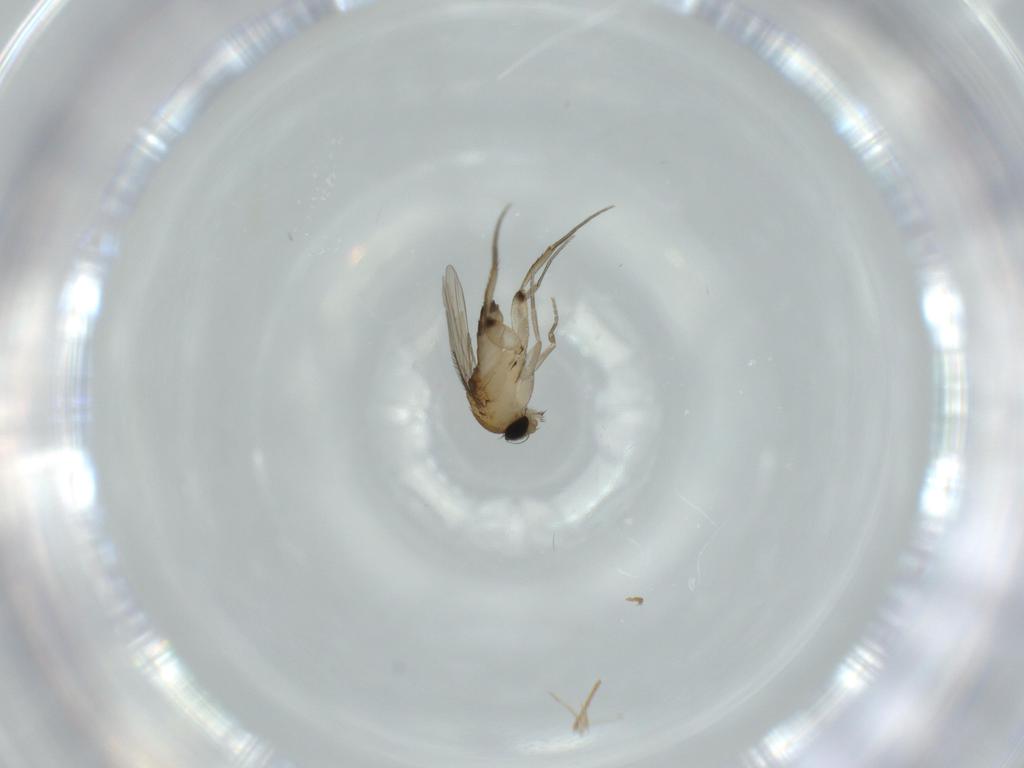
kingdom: Animalia
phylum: Arthropoda
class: Insecta
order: Diptera
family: Phoridae
